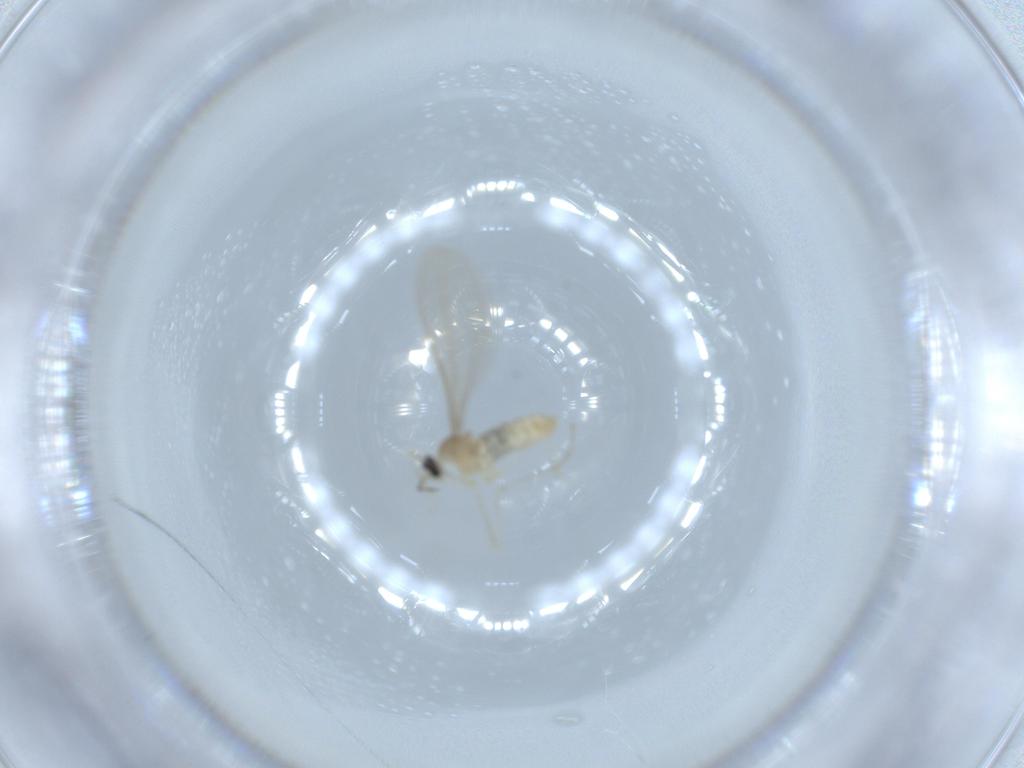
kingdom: Animalia
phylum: Arthropoda
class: Insecta
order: Diptera
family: Cecidomyiidae
